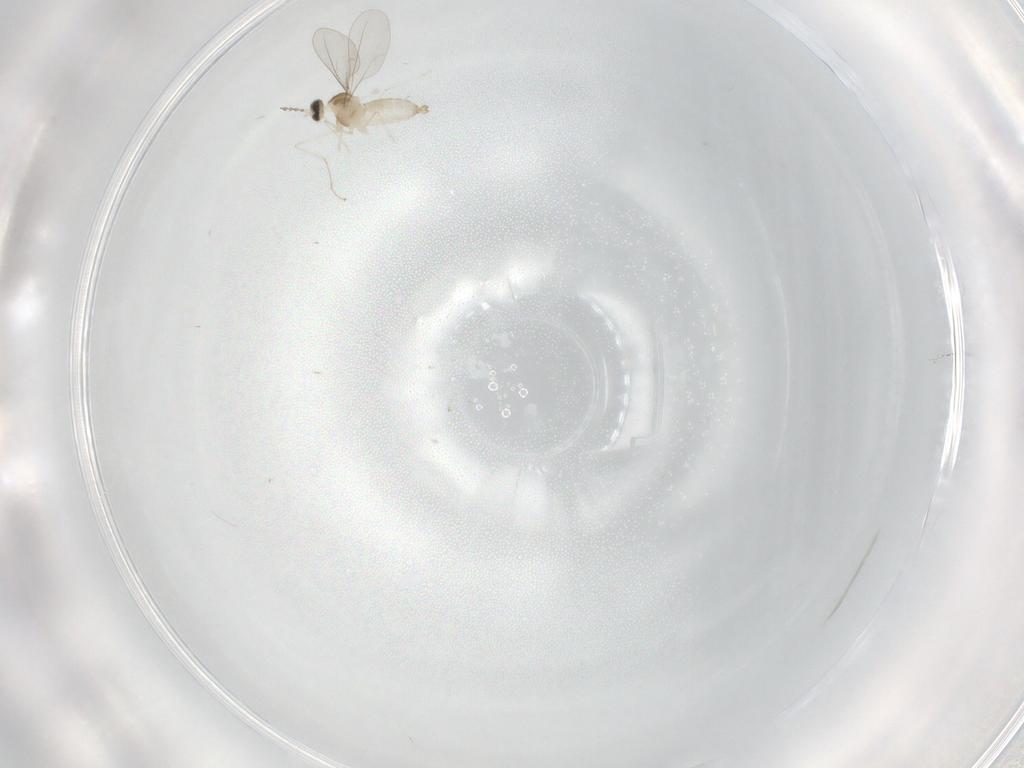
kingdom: Animalia
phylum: Arthropoda
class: Insecta
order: Diptera
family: Cecidomyiidae
